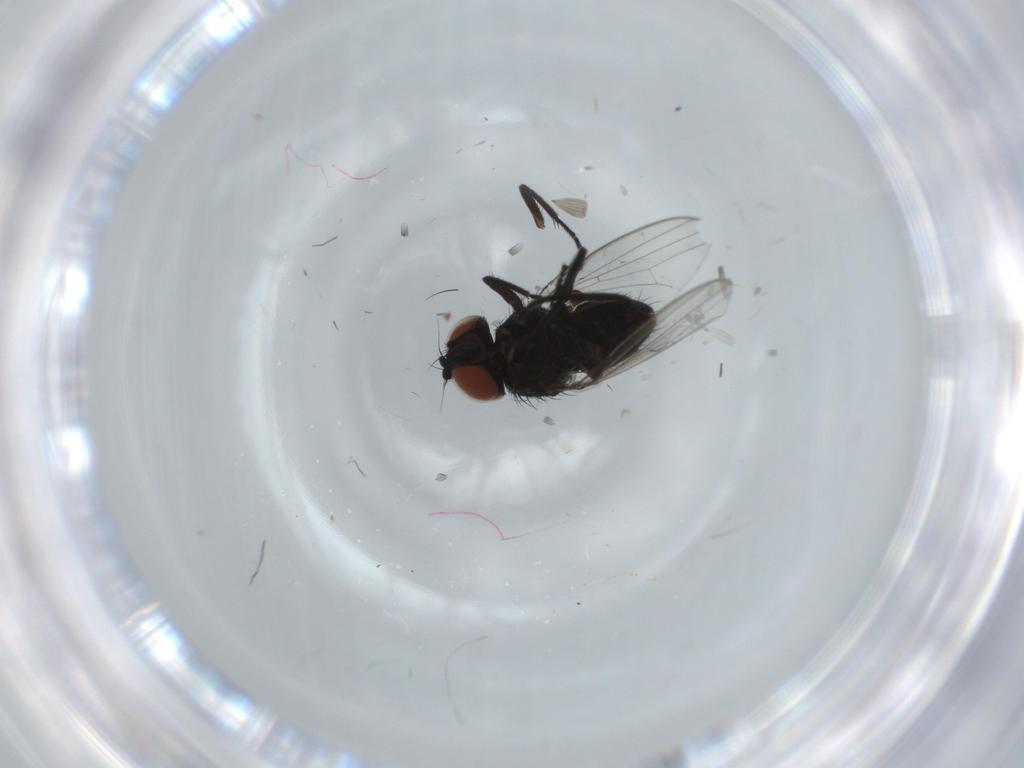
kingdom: Animalia
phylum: Arthropoda
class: Insecta
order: Diptera
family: Milichiidae
